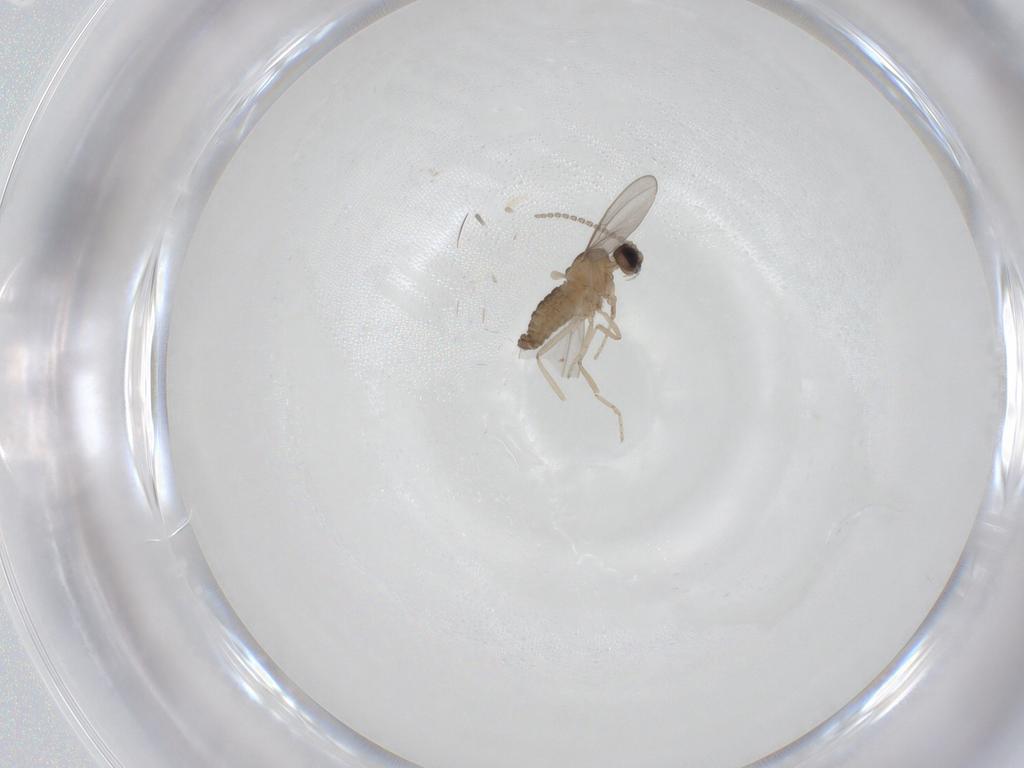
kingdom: Animalia
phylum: Arthropoda
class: Insecta
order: Diptera
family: Cecidomyiidae
